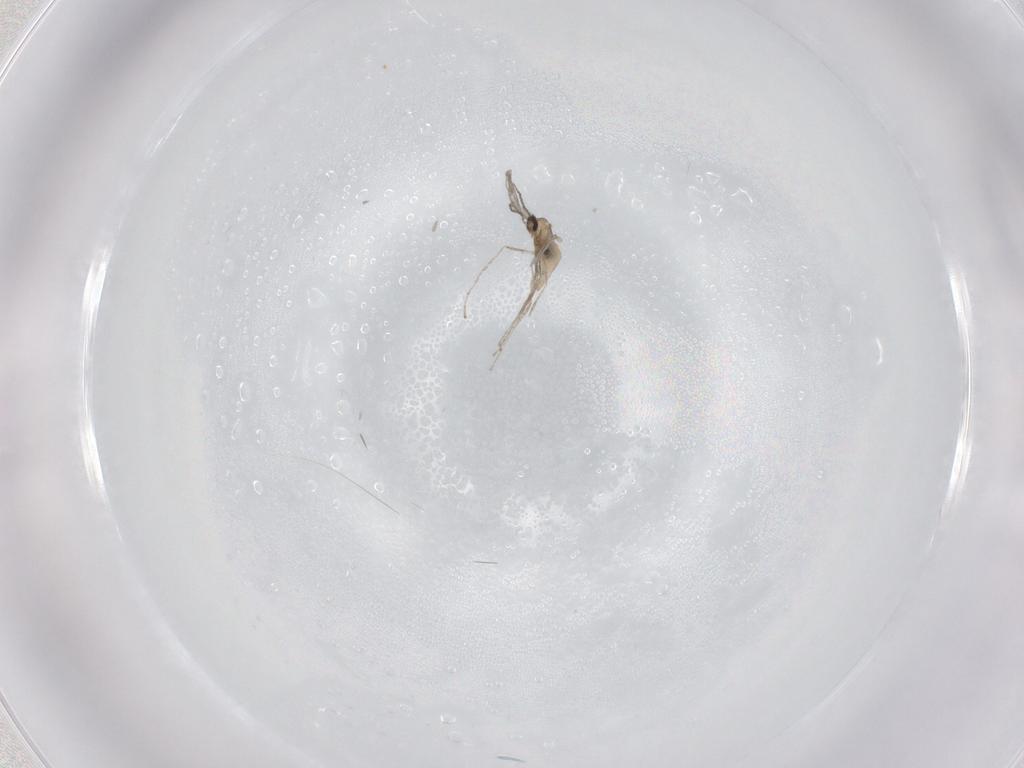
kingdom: Animalia
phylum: Arthropoda
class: Insecta
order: Diptera
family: Cecidomyiidae
